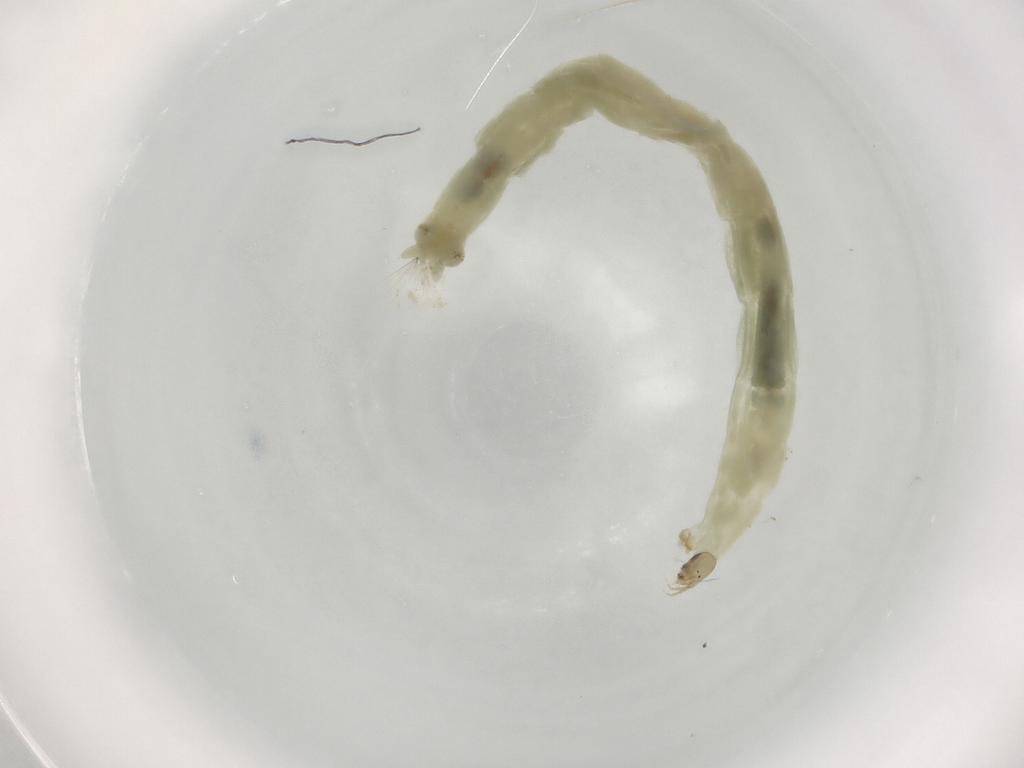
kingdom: Animalia
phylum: Arthropoda
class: Insecta
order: Diptera
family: Chironomidae
